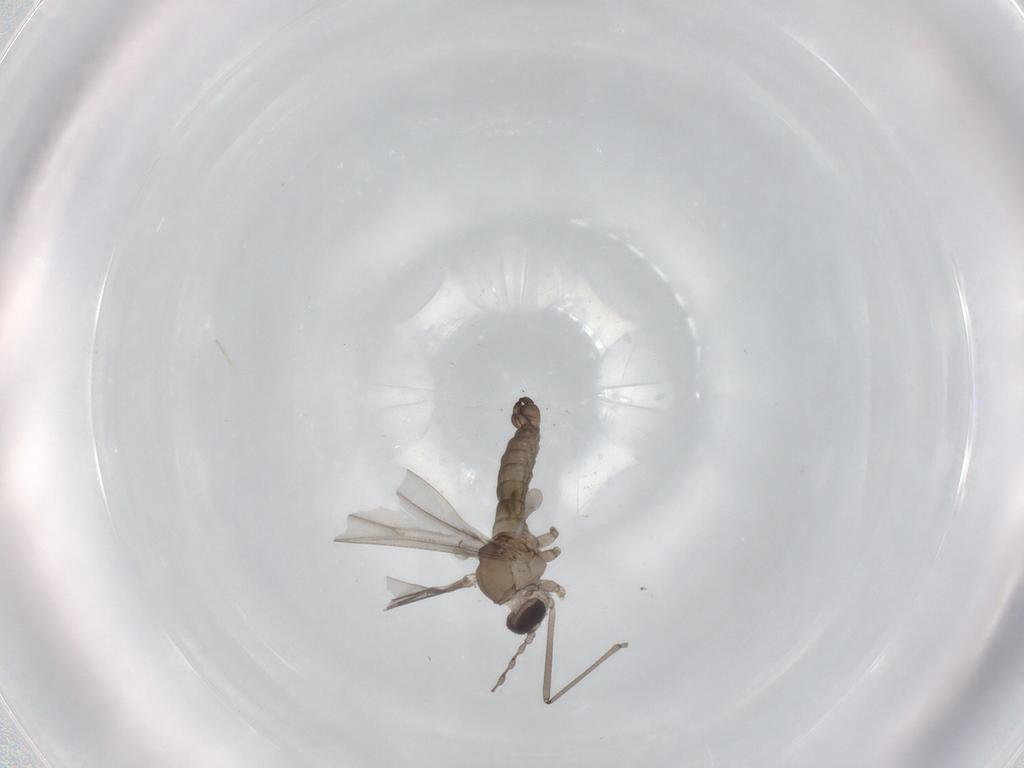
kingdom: Animalia
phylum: Arthropoda
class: Insecta
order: Diptera
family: Cecidomyiidae
